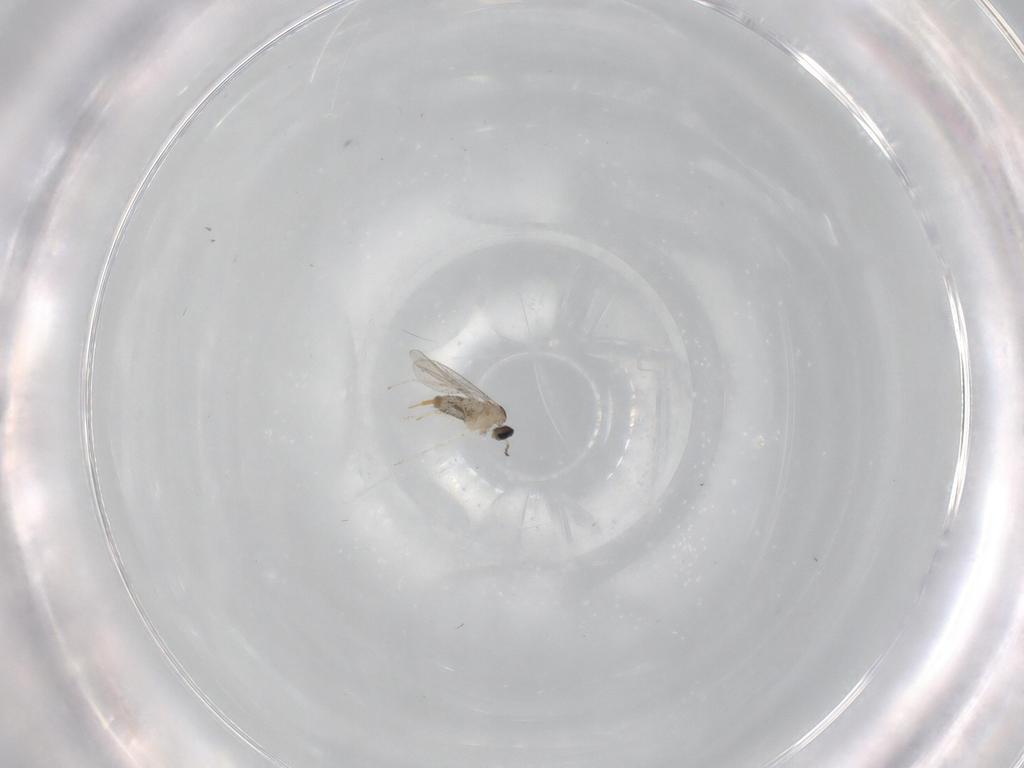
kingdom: Animalia
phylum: Arthropoda
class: Insecta
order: Diptera
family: Cecidomyiidae
